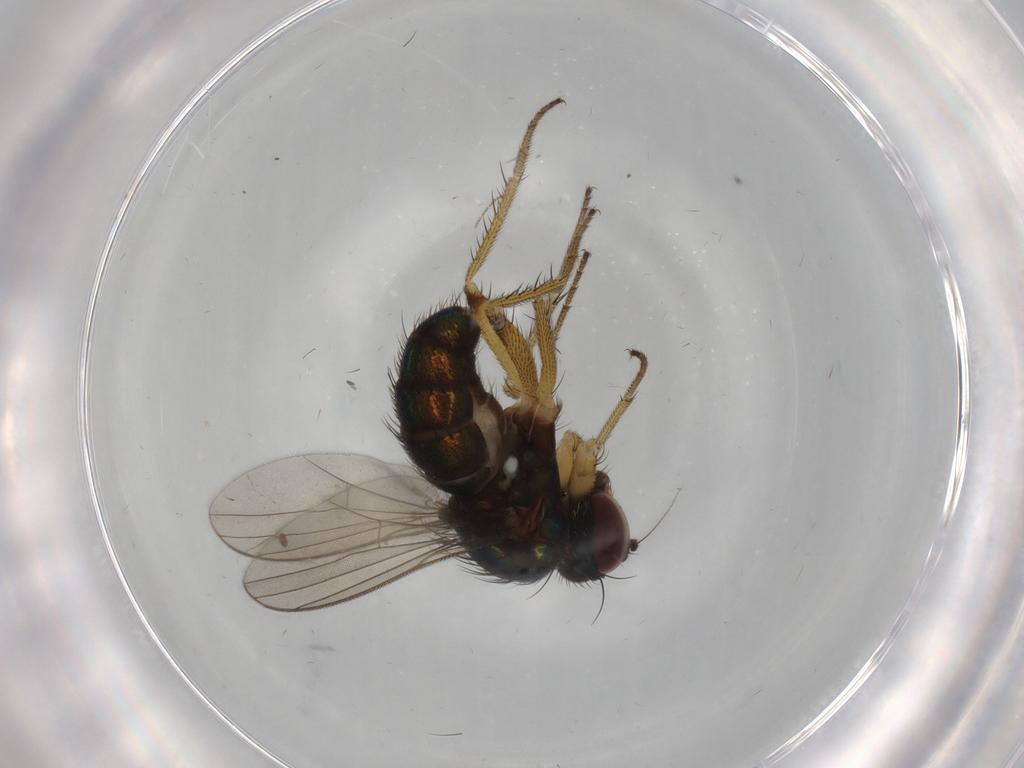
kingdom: Animalia
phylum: Arthropoda
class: Insecta
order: Diptera
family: Dolichopodidae
